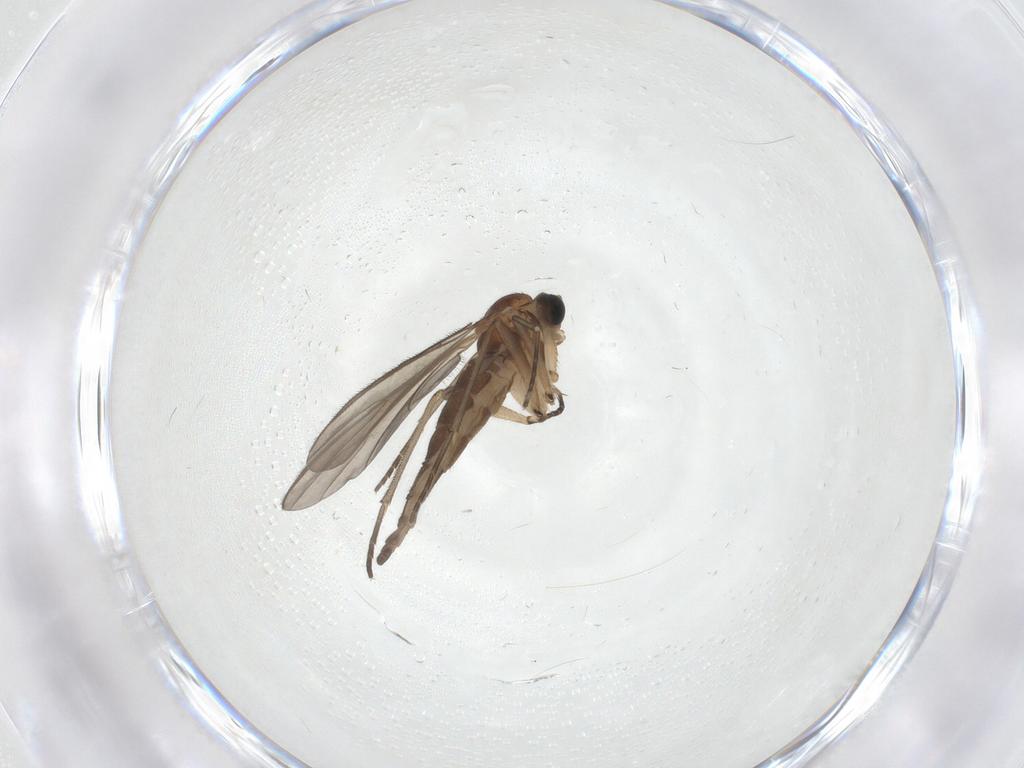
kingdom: Animalia
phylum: Arthropoda
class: Insecta
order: Diptera
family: Sciaridae
